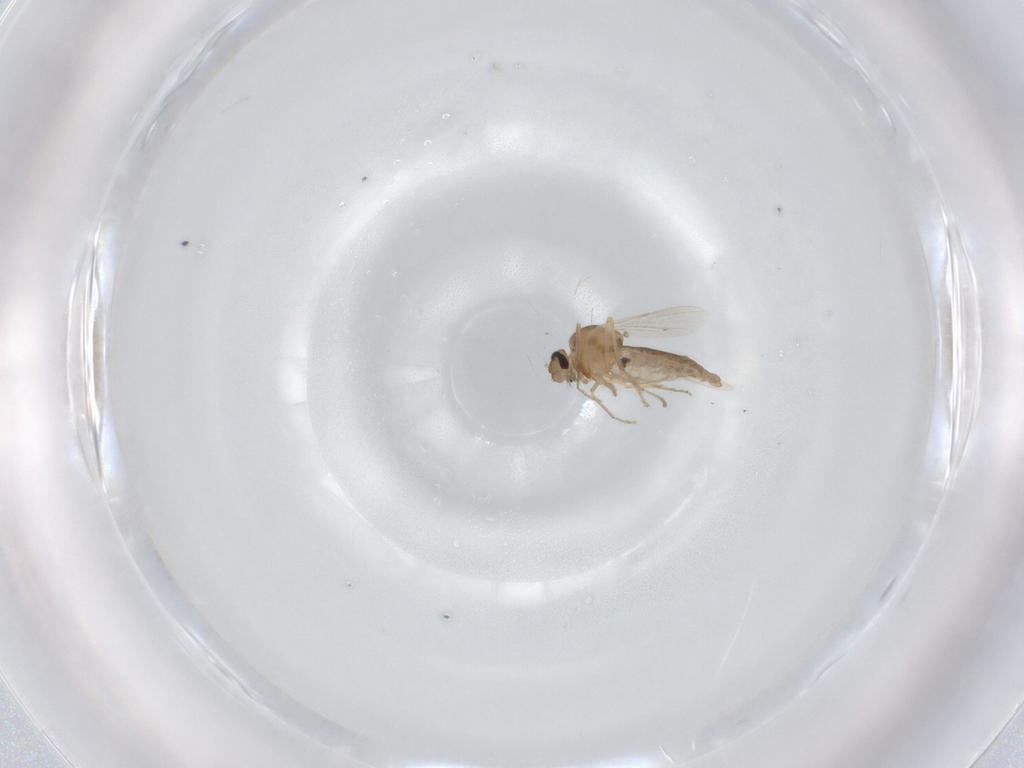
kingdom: Animalia
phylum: Arthropoda
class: Insecta
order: Diptera
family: Ceratopogonidae
